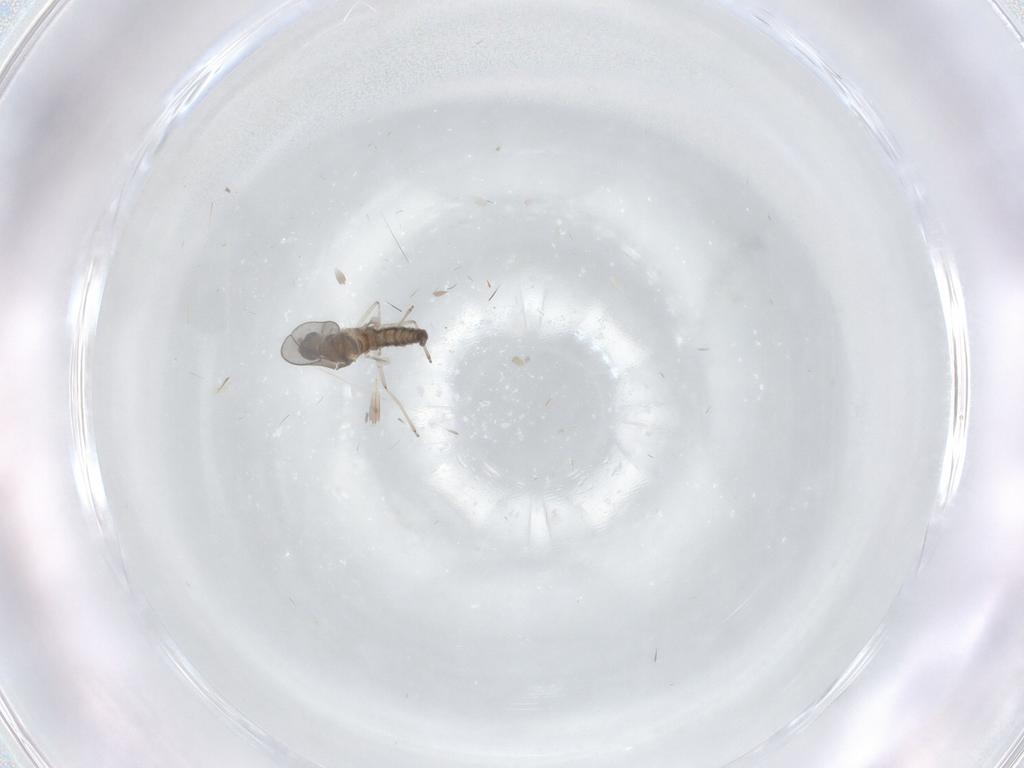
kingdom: Animalia
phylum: Arthropoda
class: Insecta
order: Diptera
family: Cecidomyiidae
